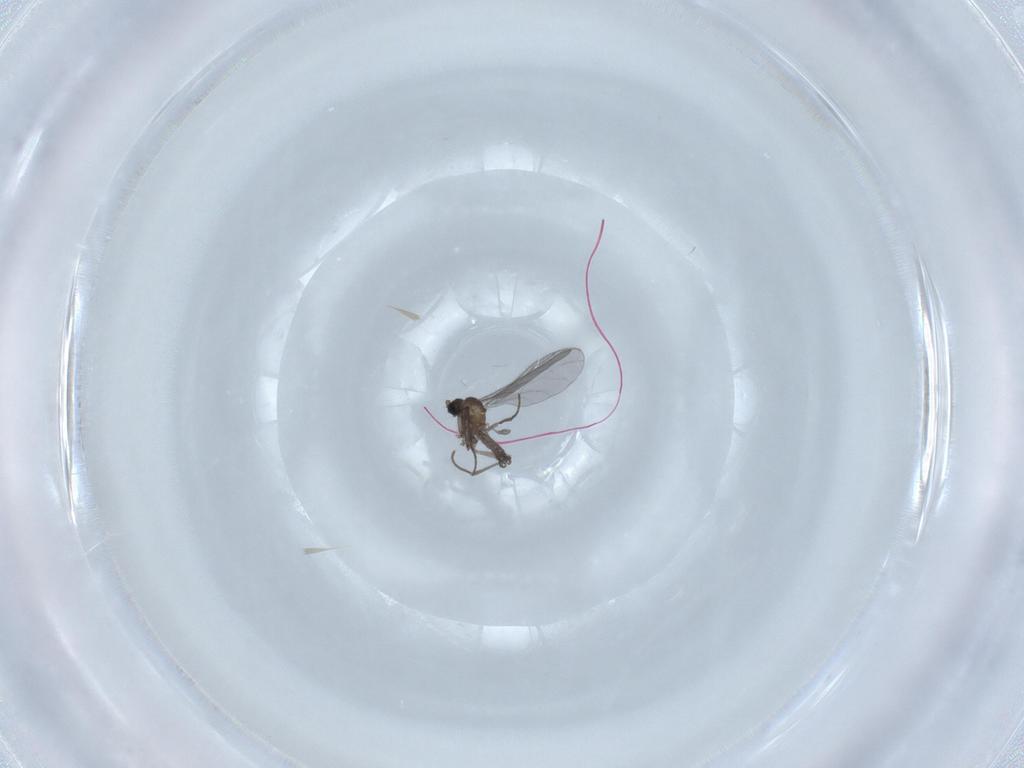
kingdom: Animalia
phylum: Arthropoda
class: Insecta
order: Diptera
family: Sciaridae
